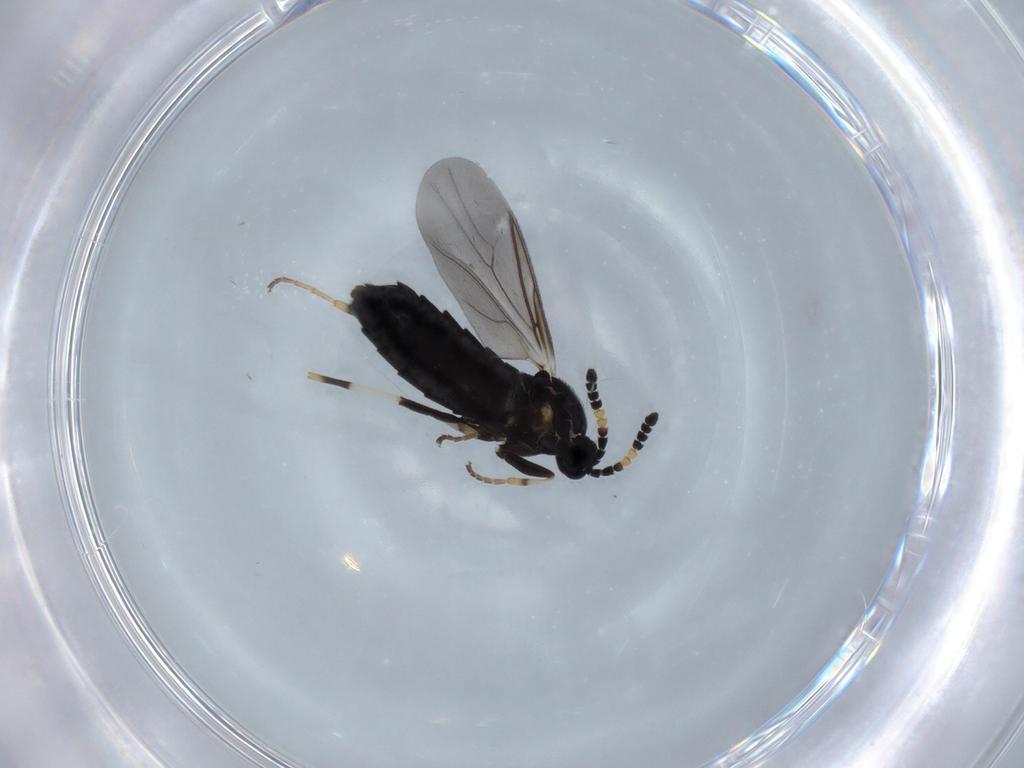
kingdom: Animalia
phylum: Arthropoda
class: Insecta
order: Diptera
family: Scatopsidae
